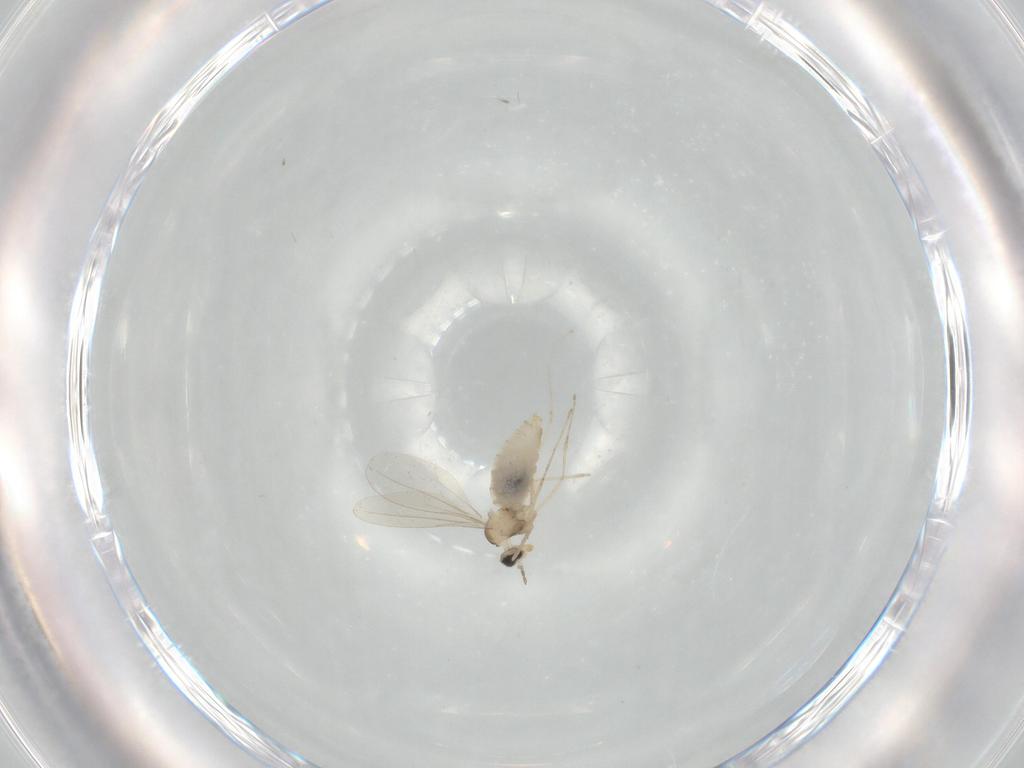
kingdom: Animalia
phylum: Arthropoda
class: Insecta
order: Diptera
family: Cecidomyiidae
